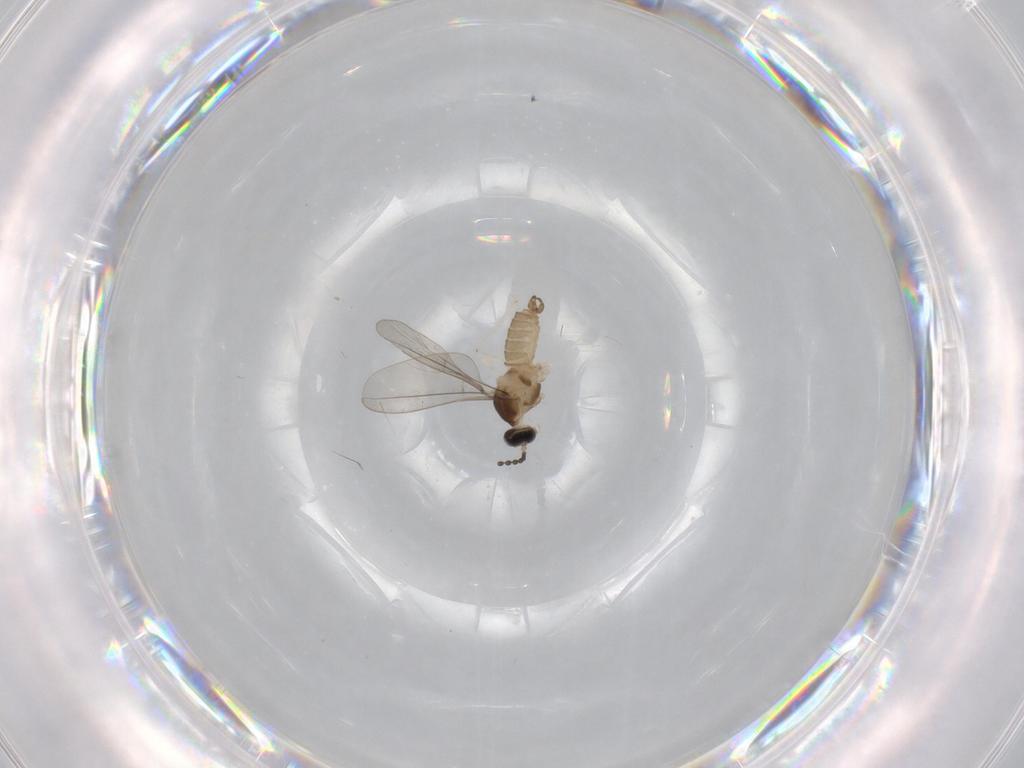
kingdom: Animalia
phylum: Arthropoda
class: Insecta
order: Diptera
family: Cecidomyiidae
